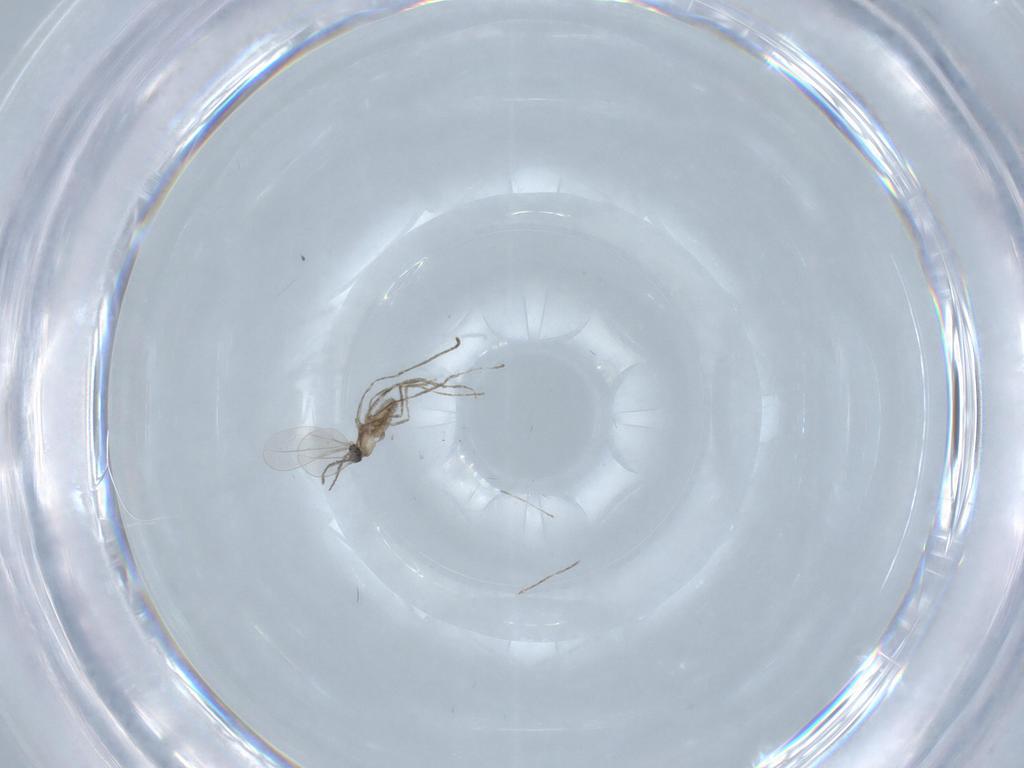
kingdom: Animalia
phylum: Arthropoda
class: Insecta
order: Diptera
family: Cecidomyiidae
